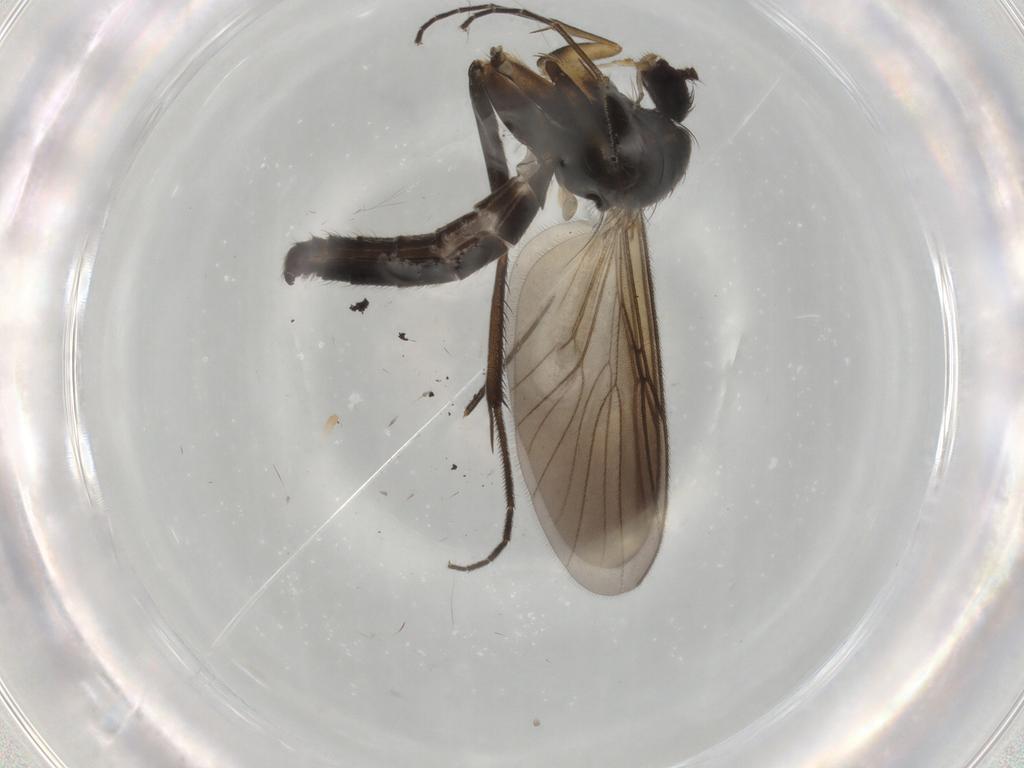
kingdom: Animalia
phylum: Arthropoda
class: Insecta
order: Diptera
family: Mycetophilidae
